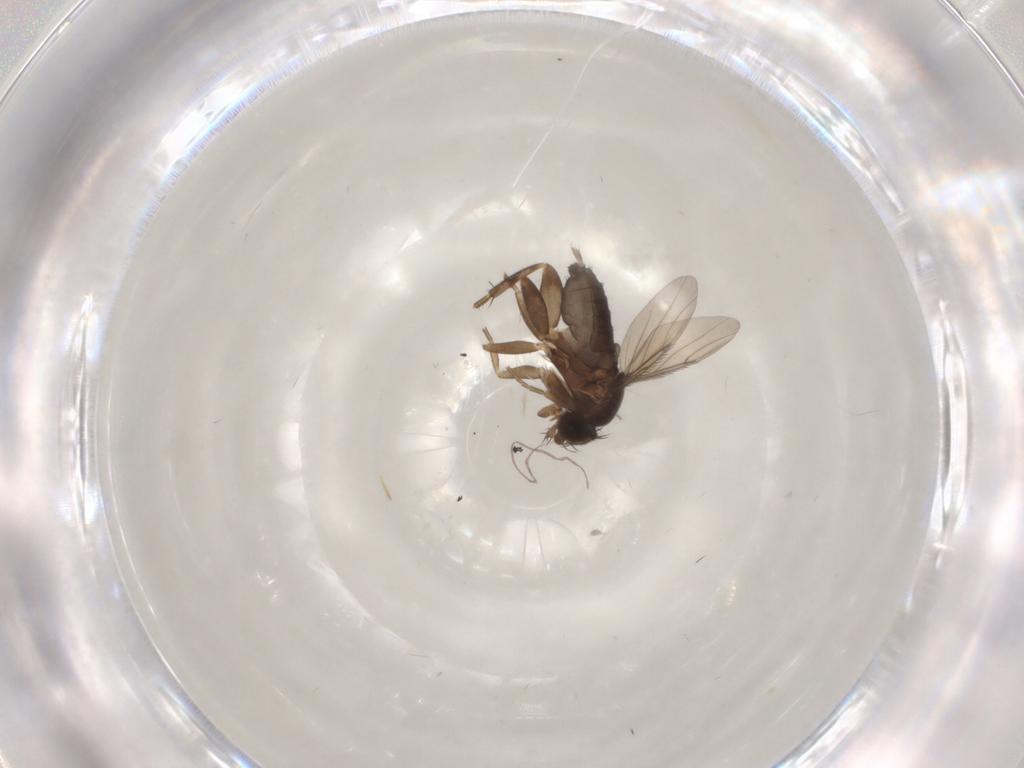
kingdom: Animalia
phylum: Arthropoda
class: Insecta
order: Diptera
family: Phoridae
